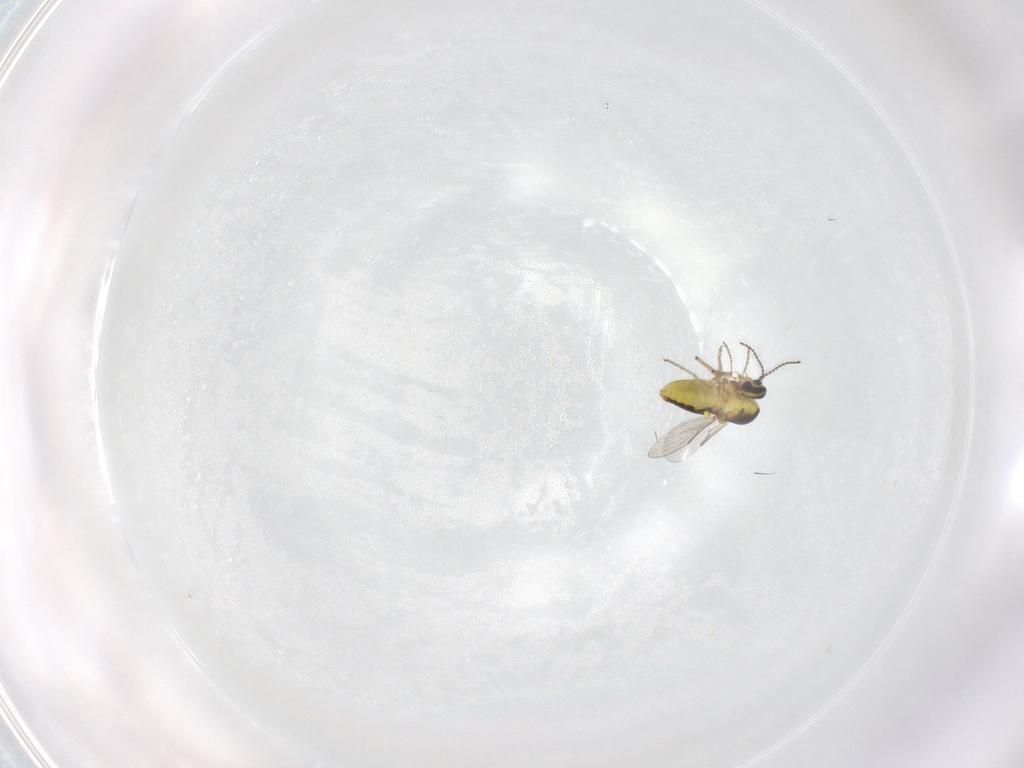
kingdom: Animalia
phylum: Arthropoda
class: Insecta
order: Diptera
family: Ceratopogonidae
